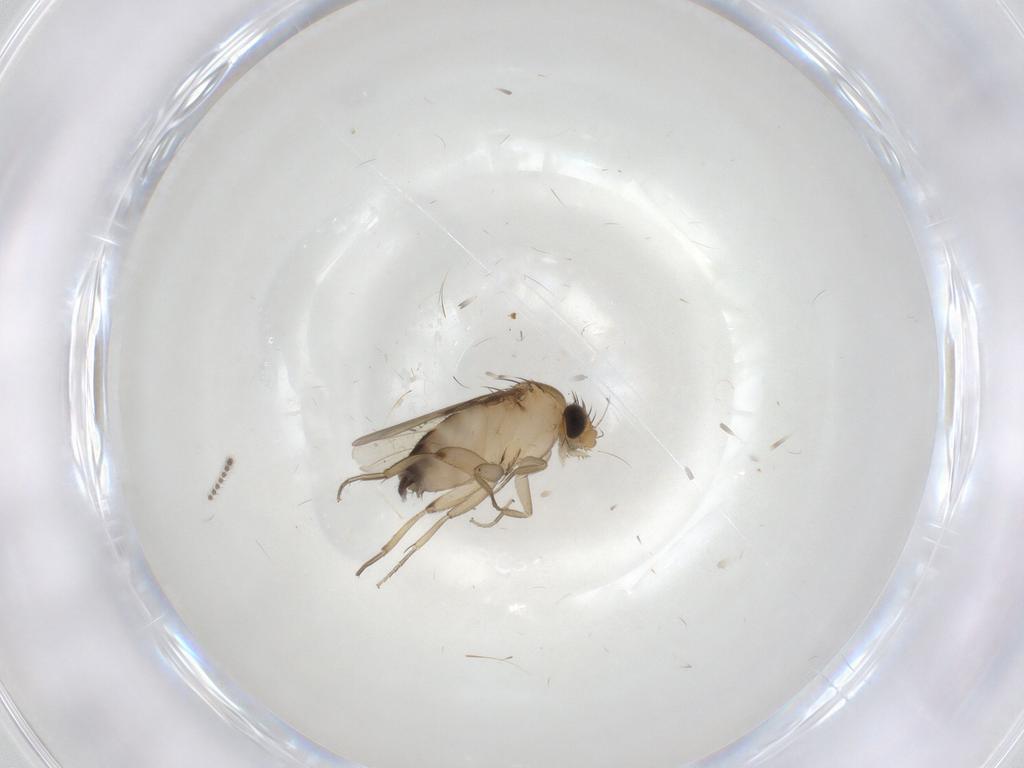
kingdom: Animalia
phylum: Arthropoda
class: Insecta
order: Diptera
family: Phoridae
